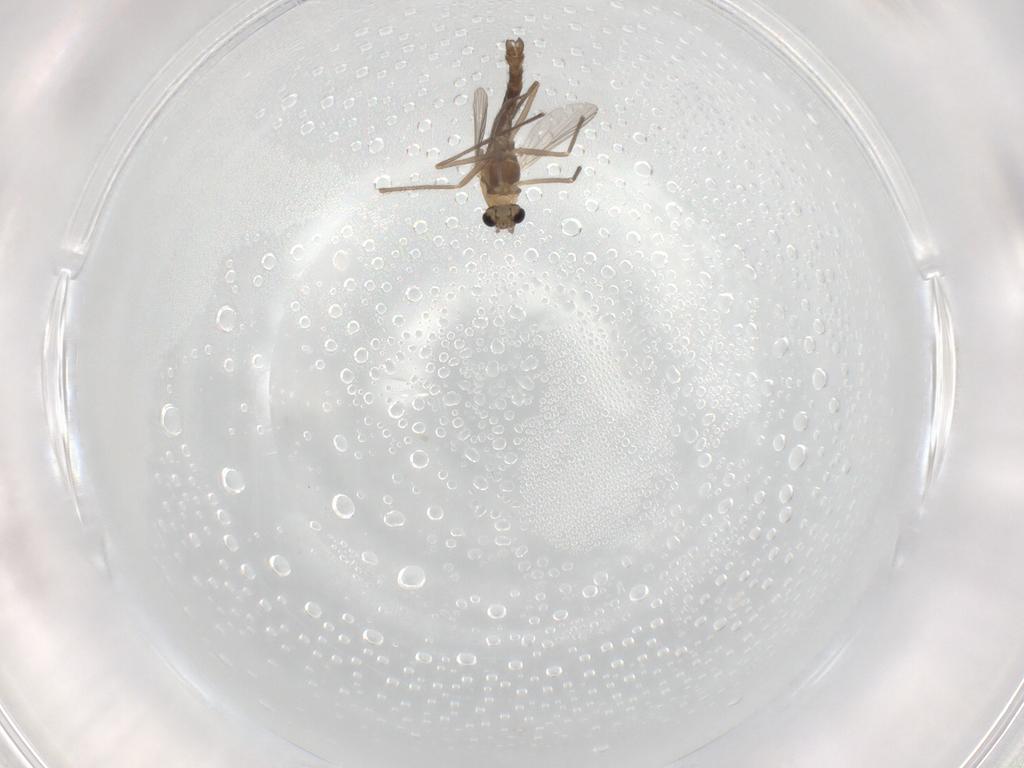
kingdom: Animalia
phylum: Arthropoda
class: Insecta
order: Diptera
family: Chironomidae
